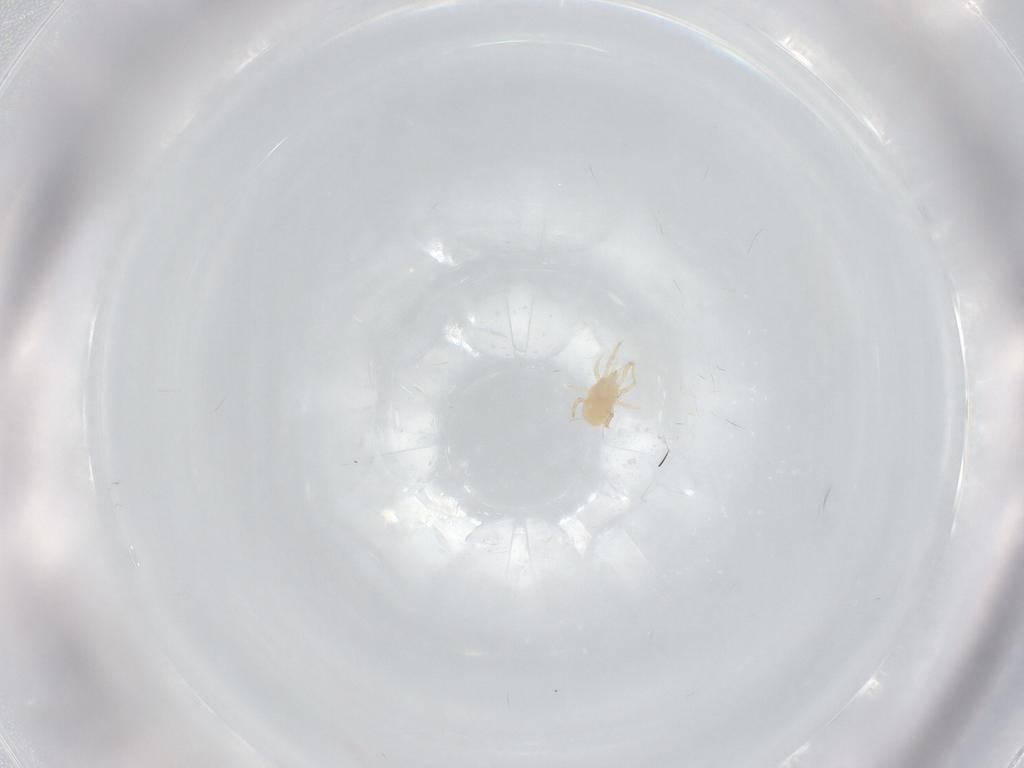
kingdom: Animalia
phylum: Arthropoda
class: Arachnida
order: Mesostigmata
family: Blattisociidae
